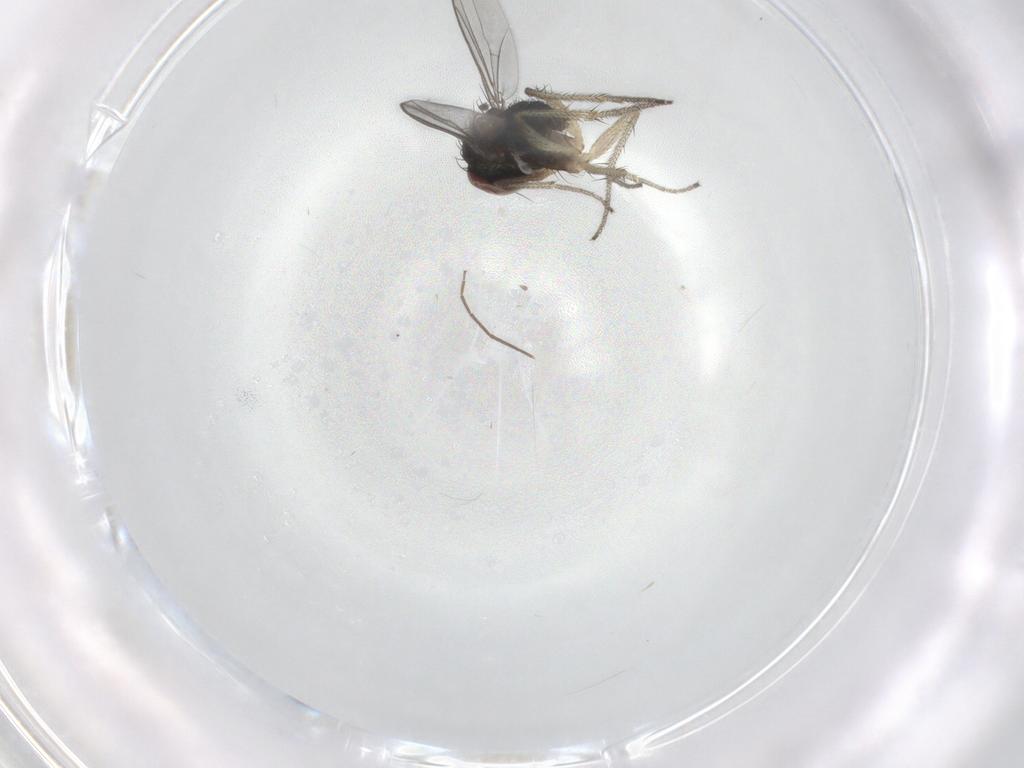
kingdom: Animalia
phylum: Arthropoda
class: Insecta
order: Diptera
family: Dolichopodidae
